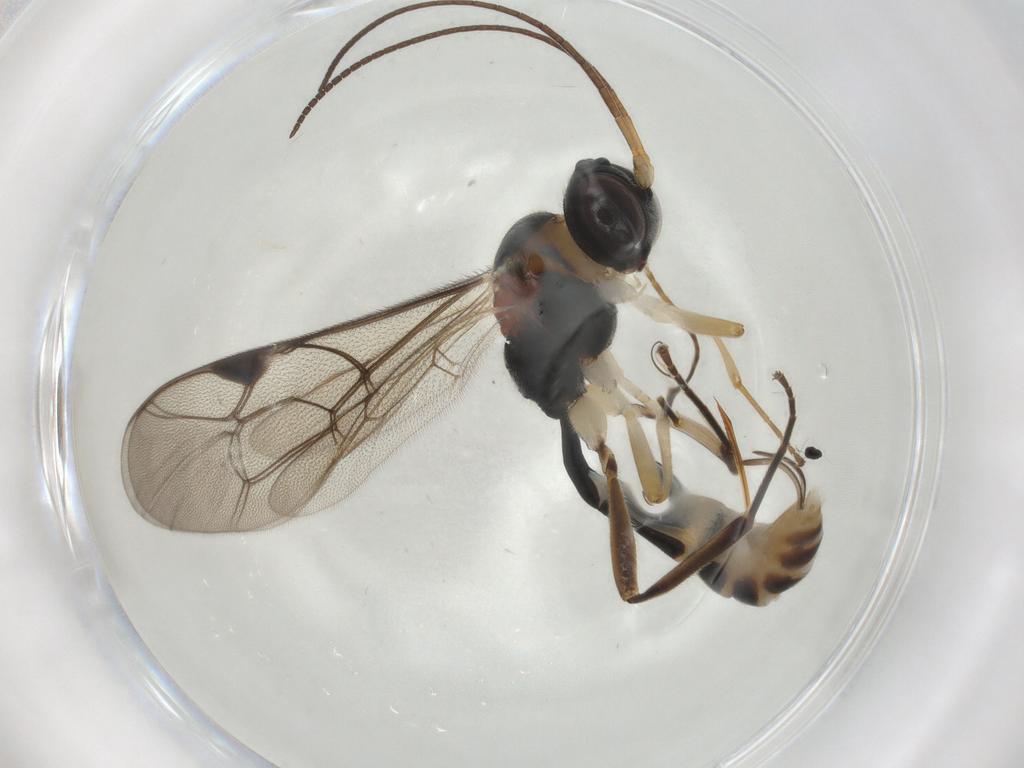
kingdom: Animalia
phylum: Arthropoda
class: Insecta
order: Hymenoptera
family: Ichneumonidae
